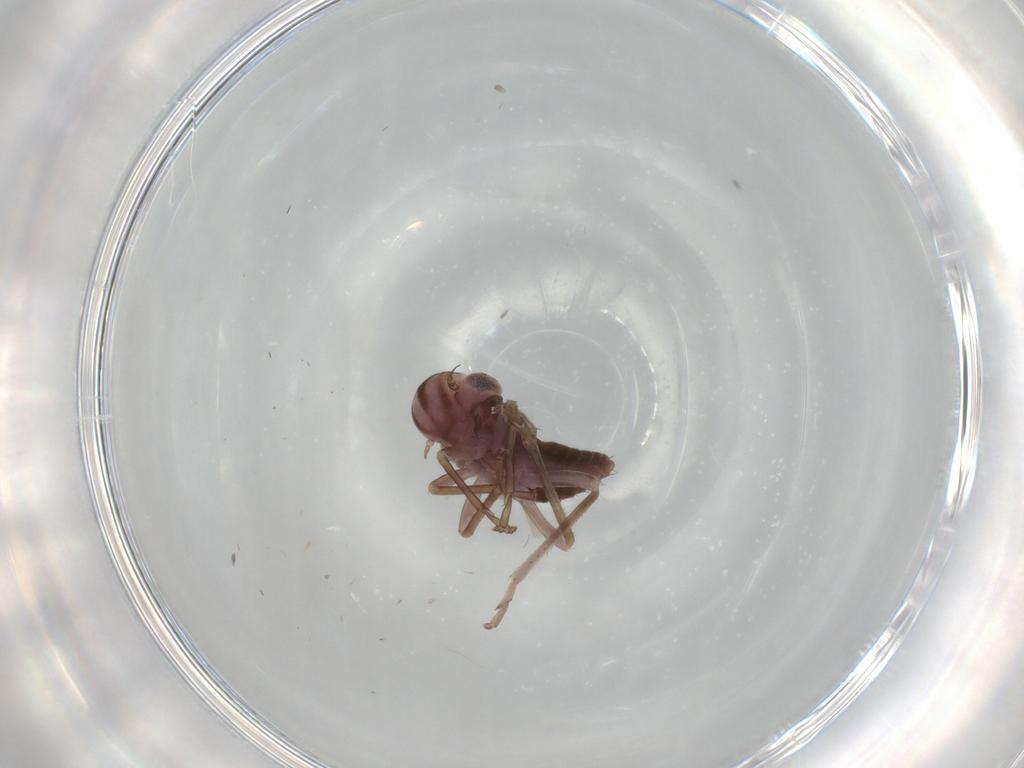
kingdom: Animalia
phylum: Arthropoda
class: Insecta
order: Hemiptera
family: Cicadellidae
